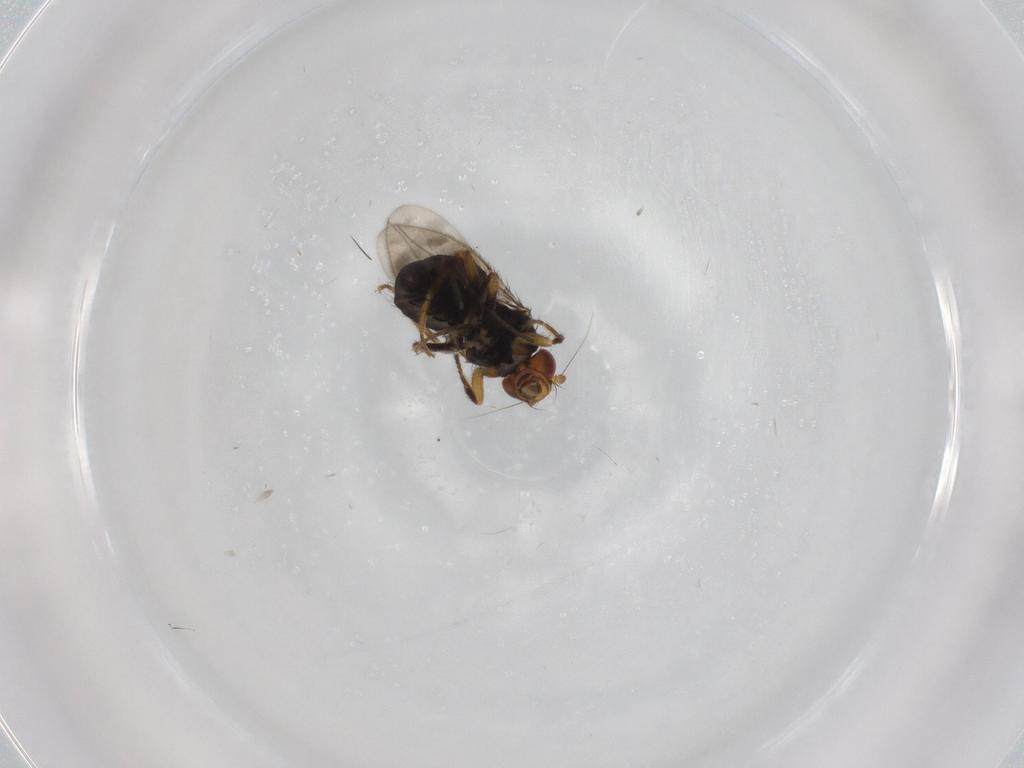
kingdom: Animalia
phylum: Arthropoda
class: Insecta
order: Diptera
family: Sphaeroceridae
